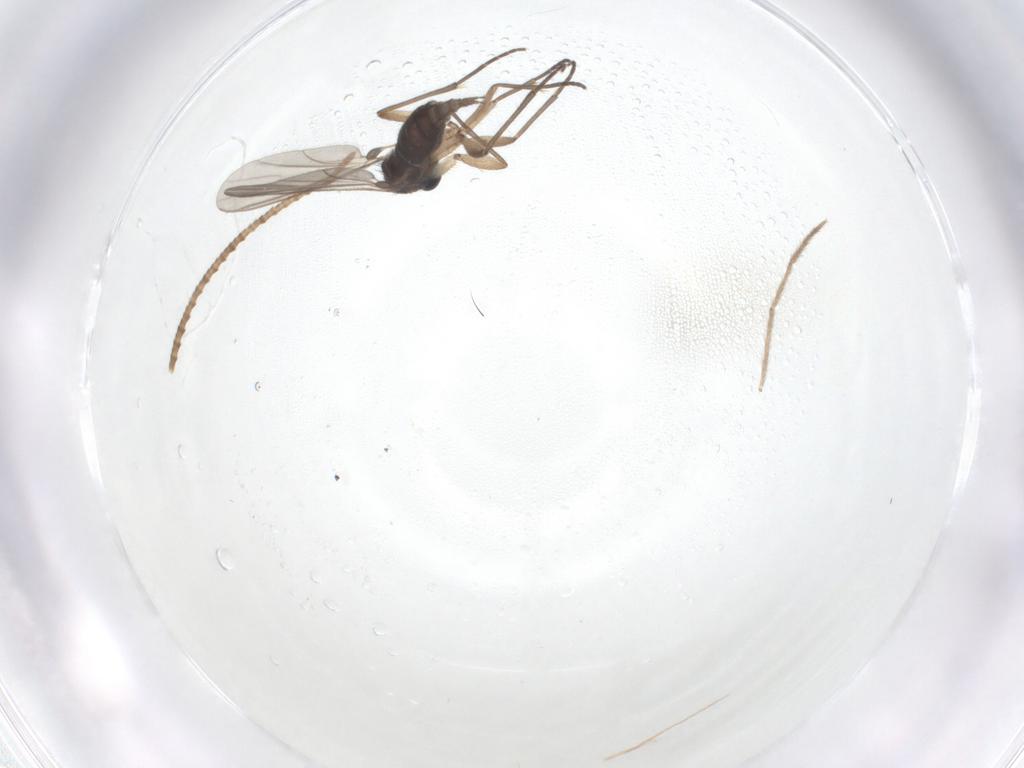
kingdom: Animalia
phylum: Arthropoda
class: Insecta
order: Diptera
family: Chironomidae
